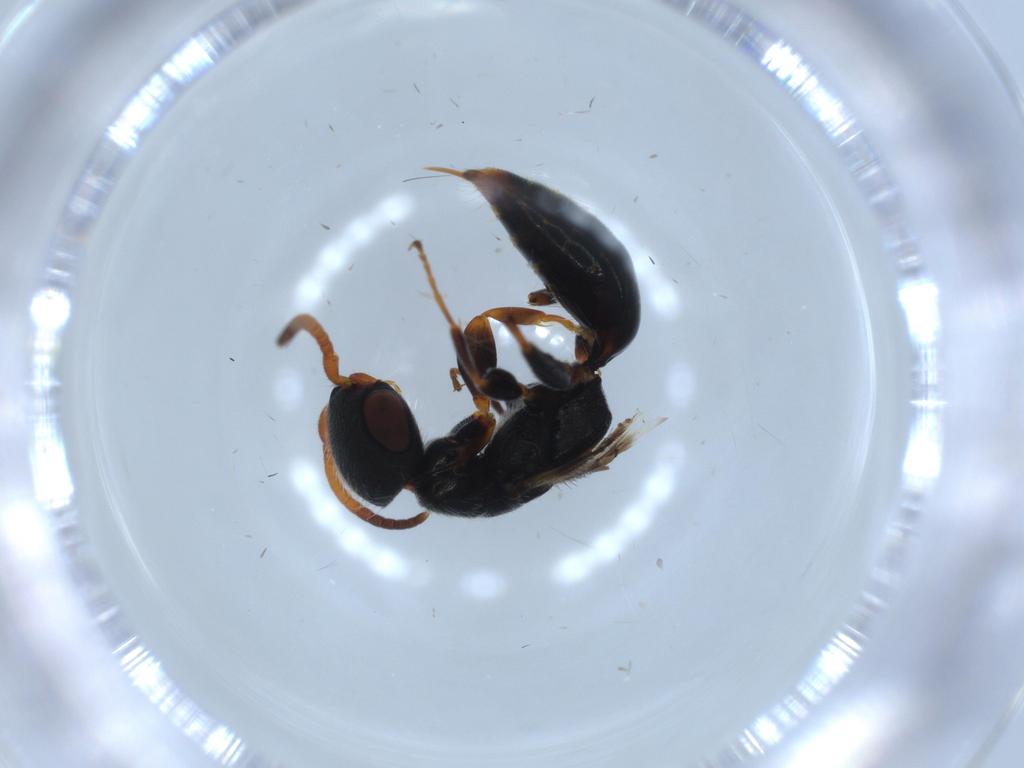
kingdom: Animalia
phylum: Arthropoda
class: Insecta
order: Hymenoptera
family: Bethylidae
